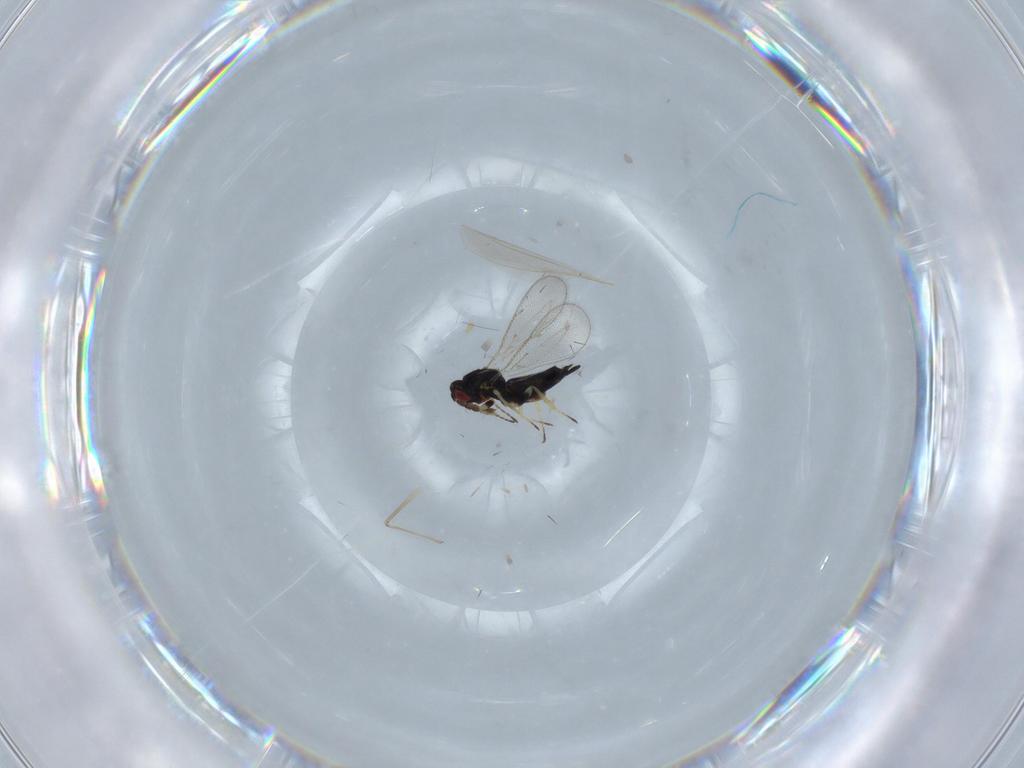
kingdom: Animalia
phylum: Arthropoda
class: Insecta
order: Hymenoptera
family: Eulophidae
